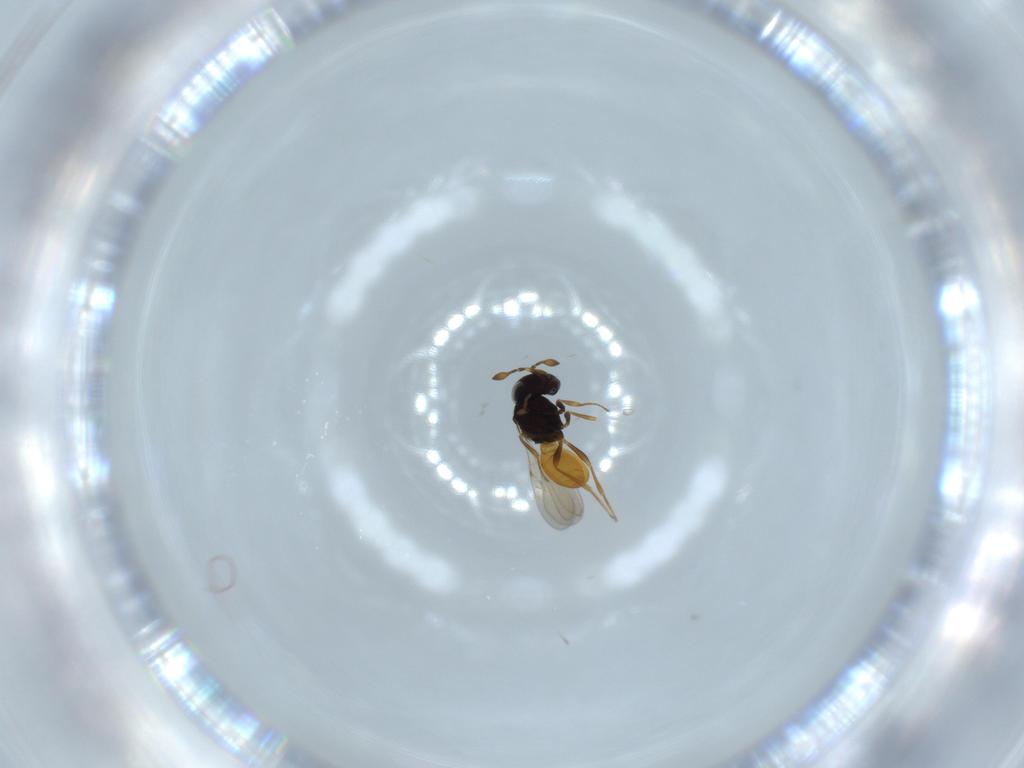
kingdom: Animalia
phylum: Arthropoda
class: Insecta
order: Hymenoptera
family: Scelionidae
